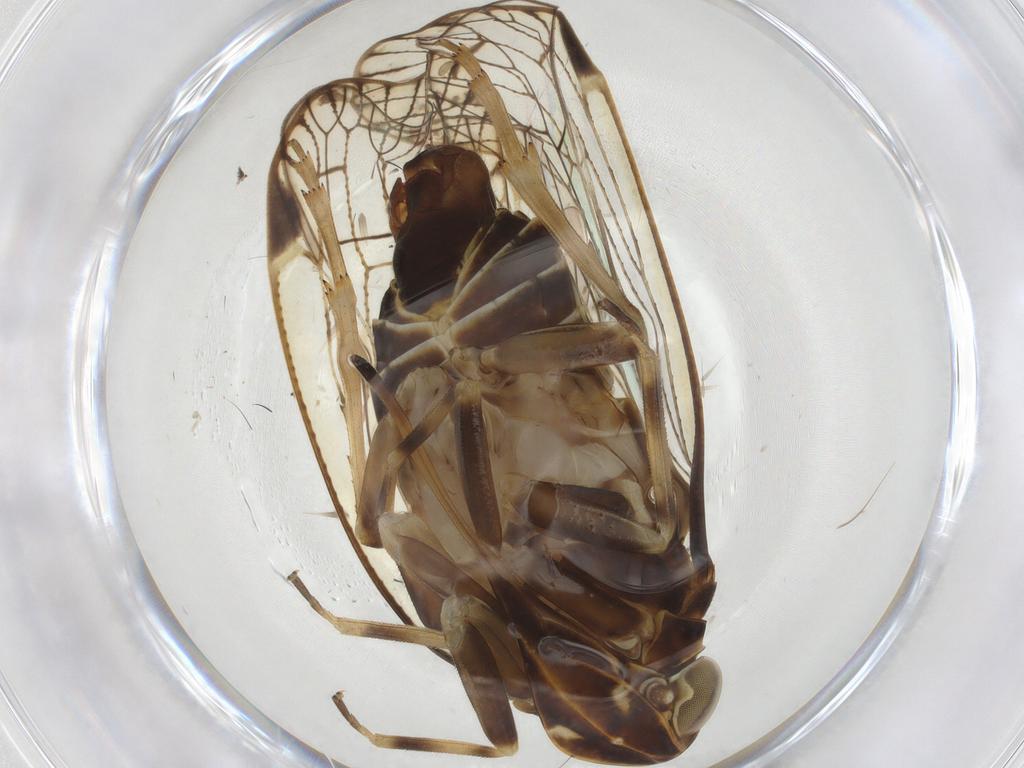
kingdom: Animalia
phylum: Arthropoda
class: Insecta
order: Hemiptera
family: Cixiidae
